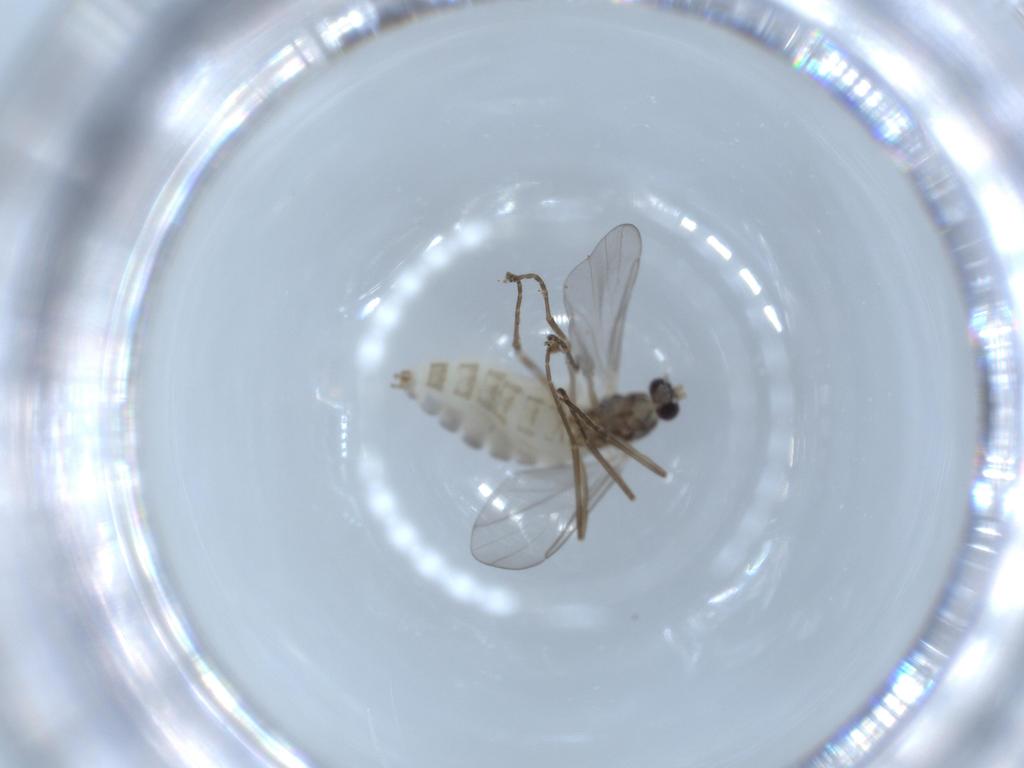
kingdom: Animalia
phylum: Arthropoda
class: Insecta
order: Diptera
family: Cecidomyiidae
